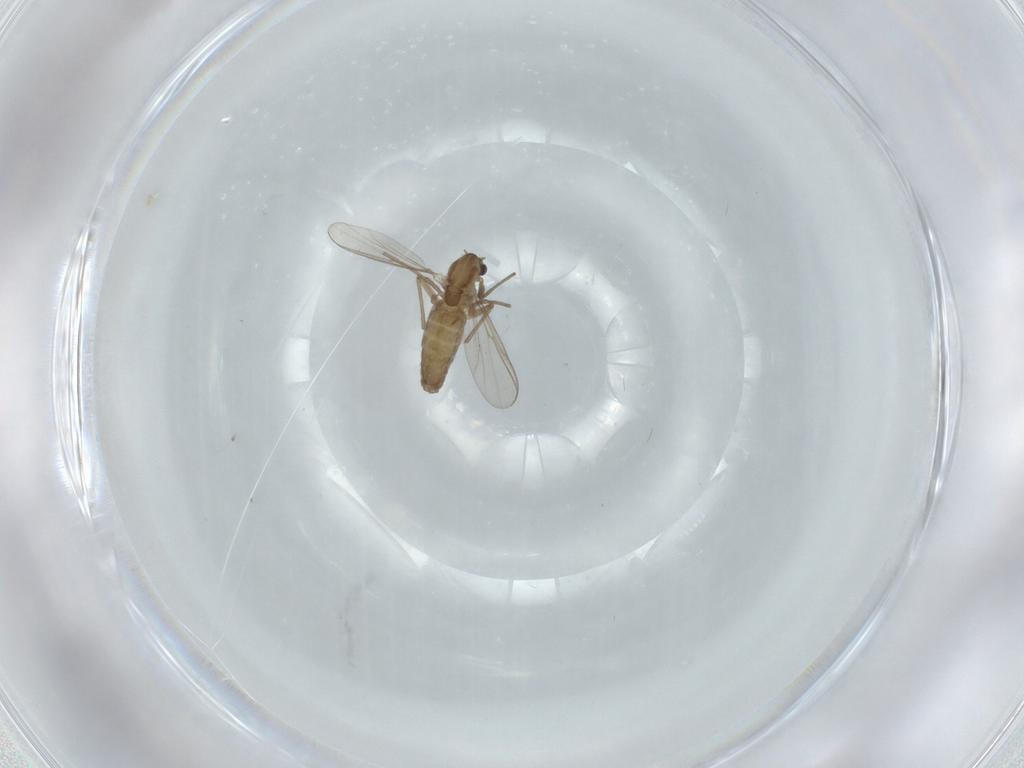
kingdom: Animalia
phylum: Arthropoda
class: Insecta
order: Diptera
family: Chironomidae
